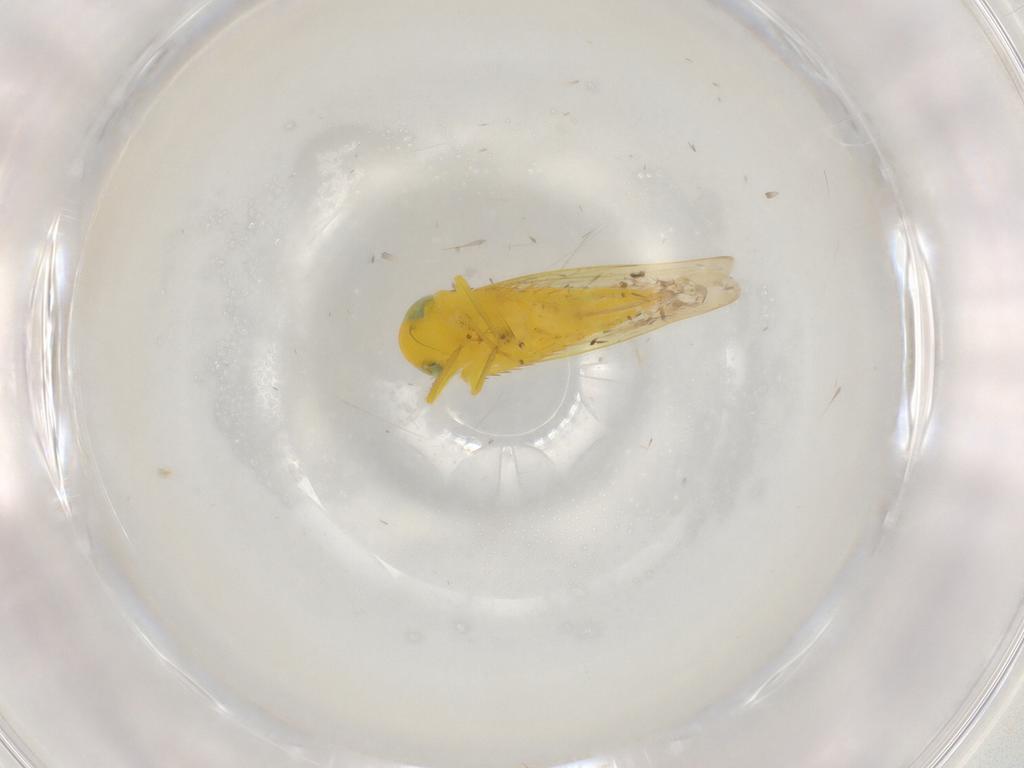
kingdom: Animalia
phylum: Arthropoda
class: Insecta
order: Hemiptera
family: Cicadellidae
